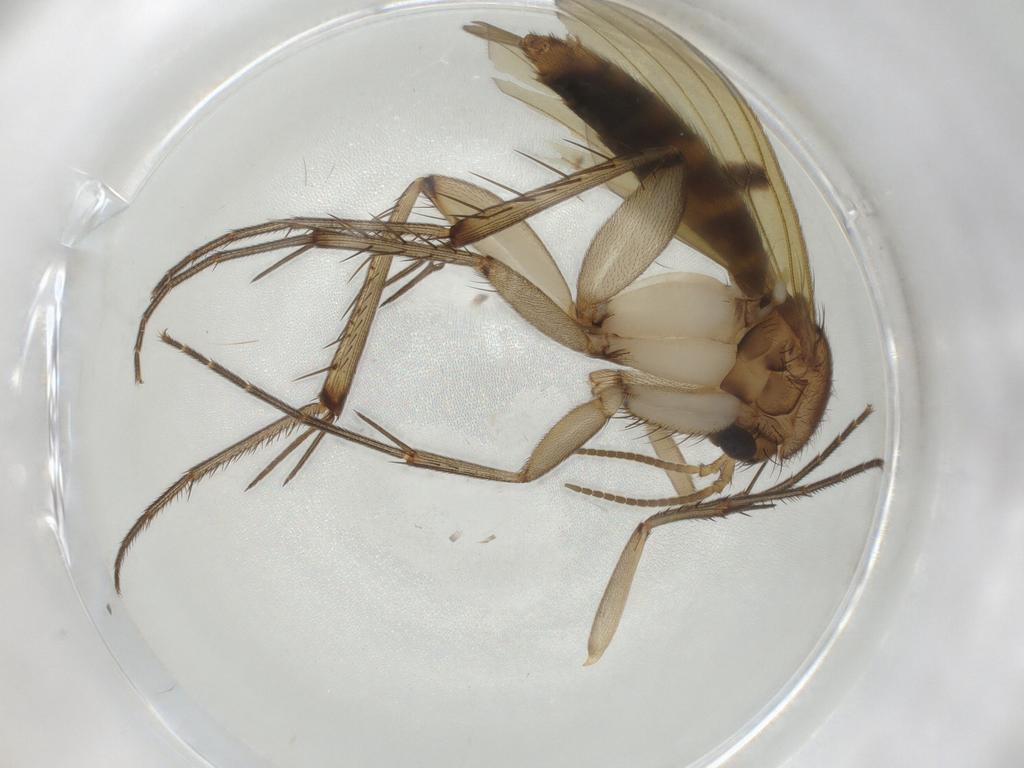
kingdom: Animalia
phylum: Arthropoda
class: Insecta
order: Diptera
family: Mycetophilidae
